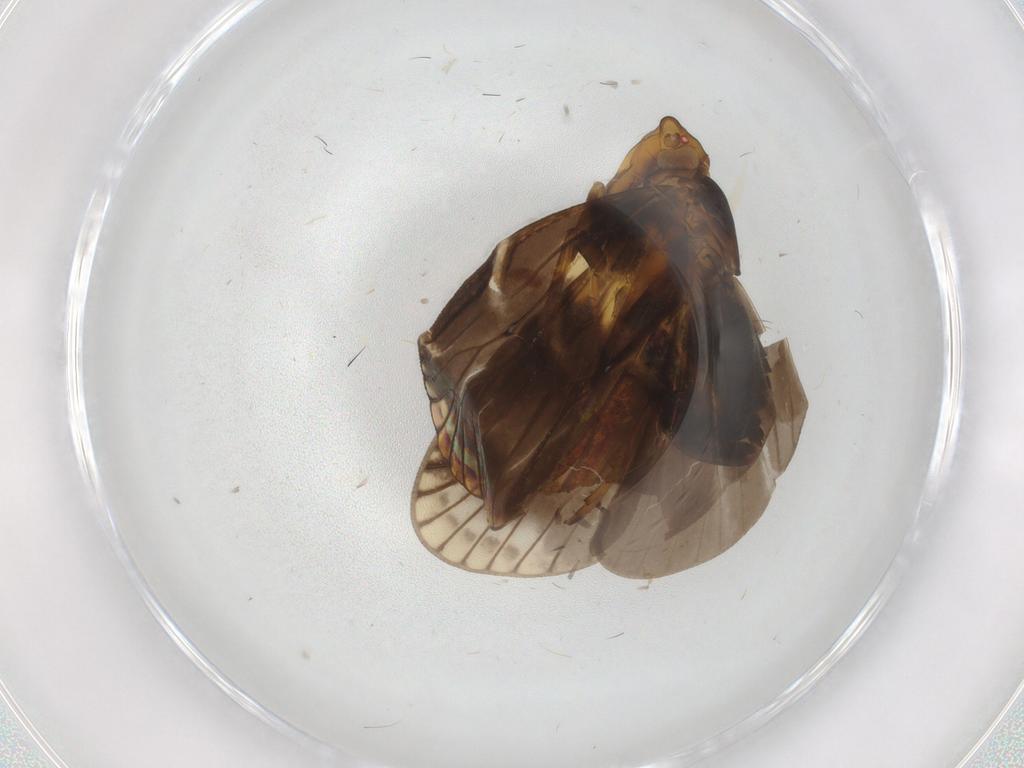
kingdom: Animalia
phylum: Arthropoda
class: Insecta
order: Hemiptera
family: Cixiidae
